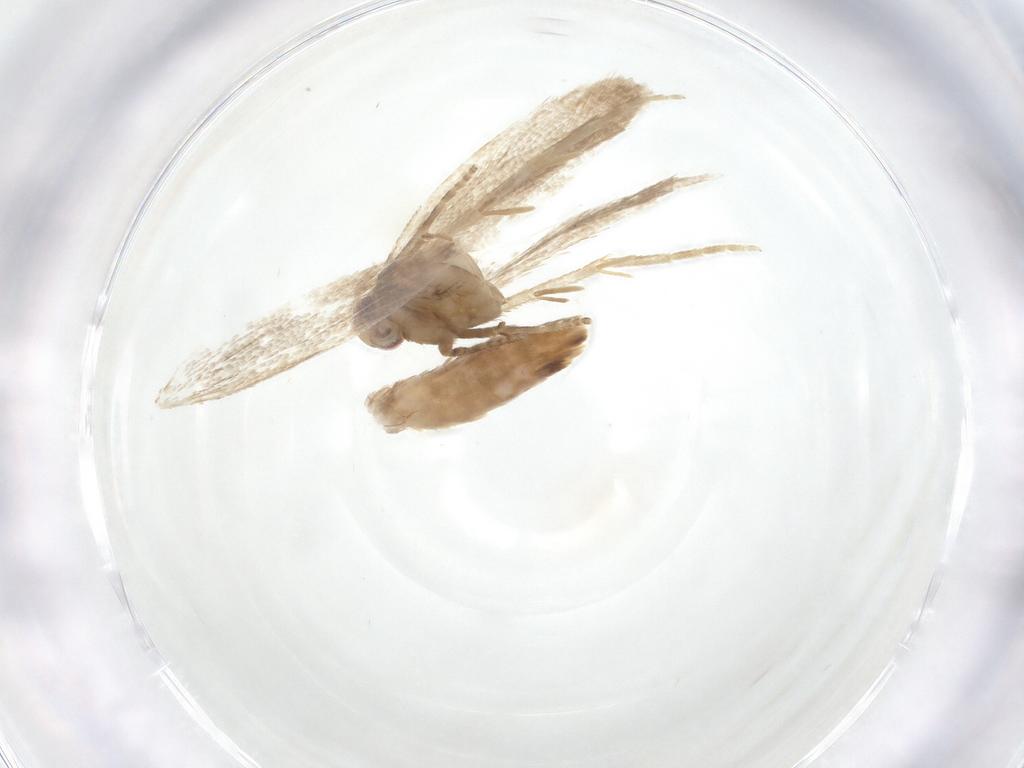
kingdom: Animalia
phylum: Arthropoda
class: Insecta
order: Lepidoptera
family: Gelechiidae
